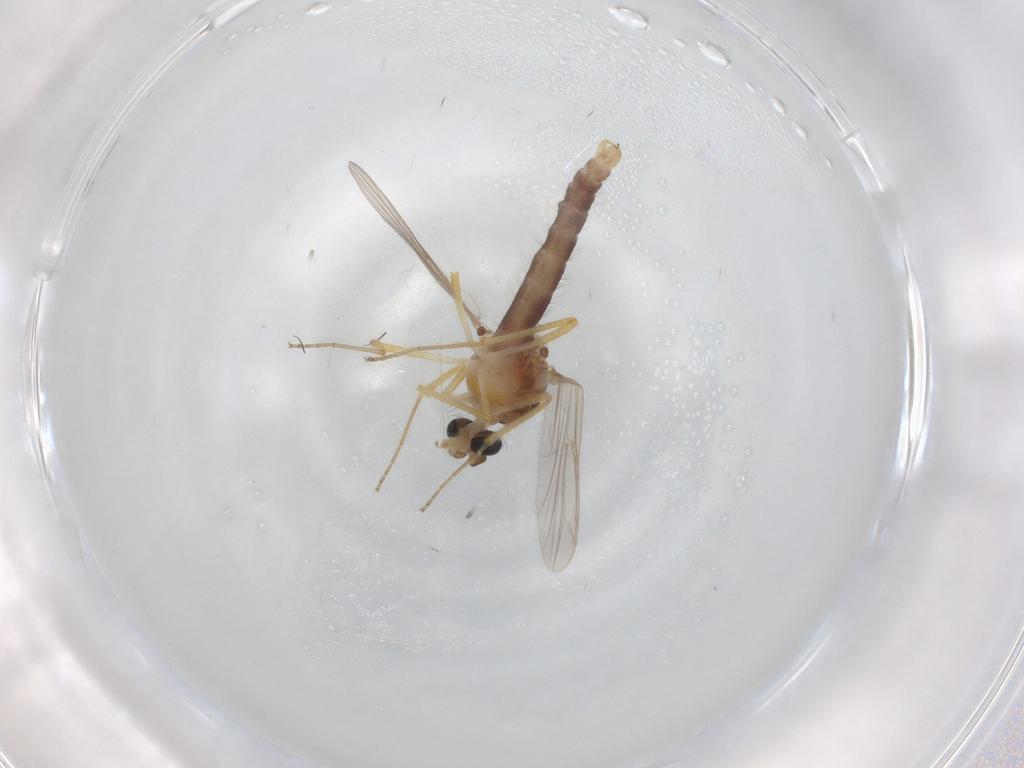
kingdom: Animalia
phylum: Arthropoda
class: Insecta
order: Diptera
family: Ceratopogonidae
